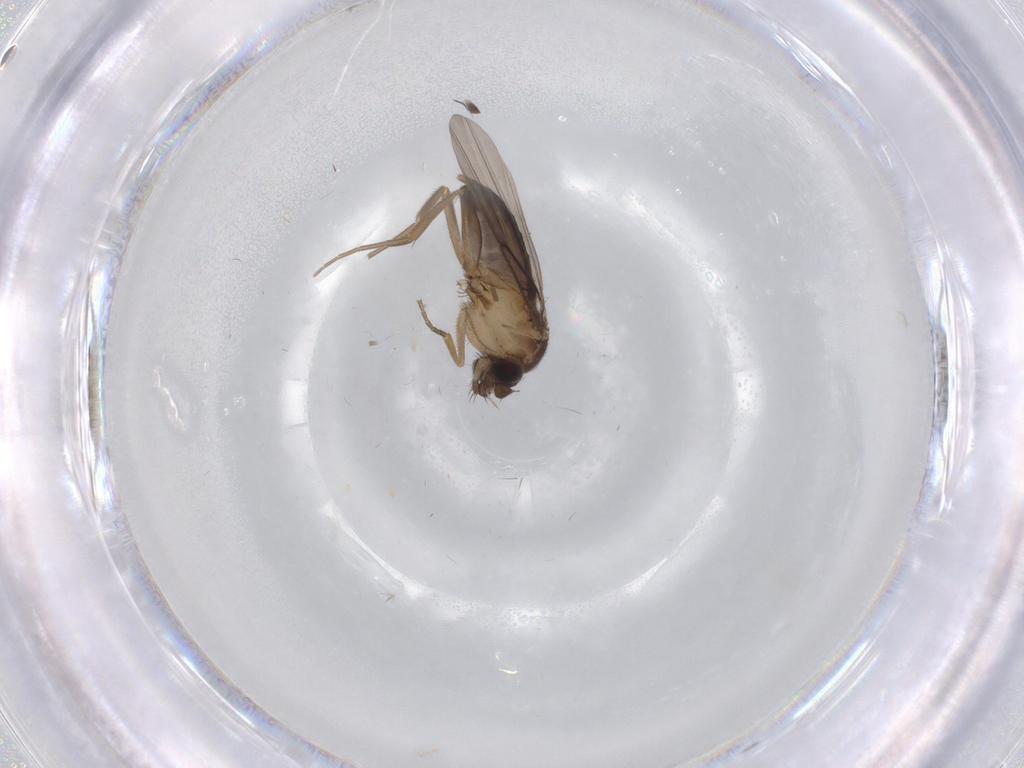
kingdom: Animalia
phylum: Arthropoda
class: Insecta
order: Diptera
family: Phoridae
